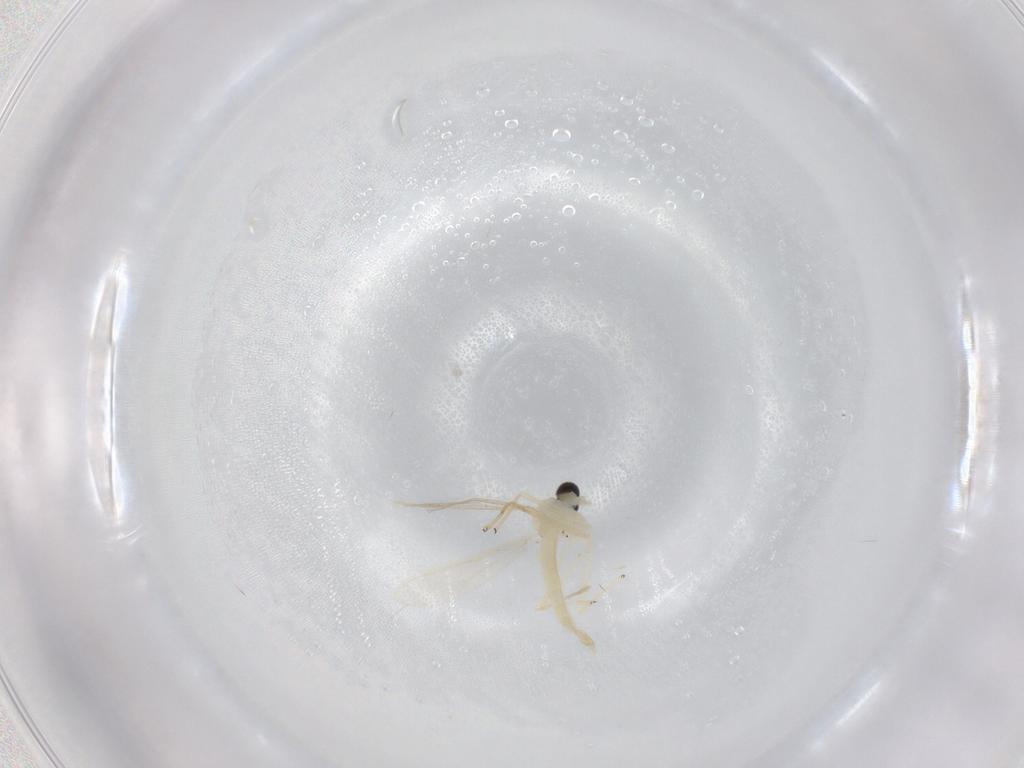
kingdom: Animalia
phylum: Arthropoda
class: Insecta
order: Diptera
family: Chironomidae
